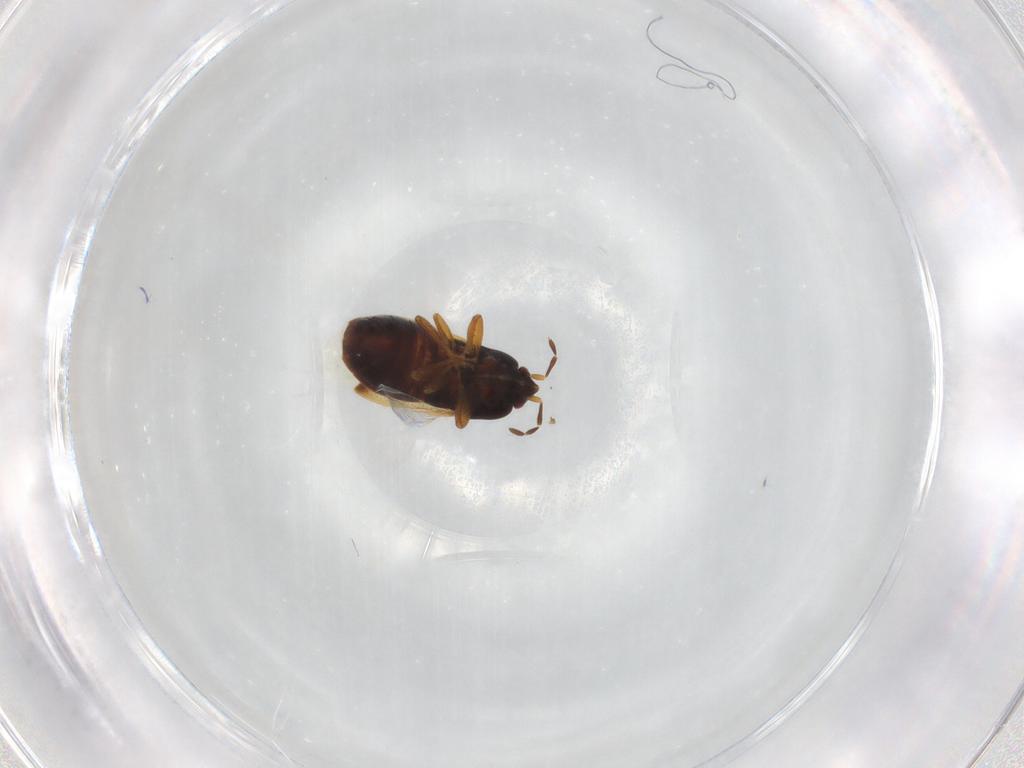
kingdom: Animalia
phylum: Arthropoda
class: Insecta
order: Hemiptera
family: Rhyparochromidae
